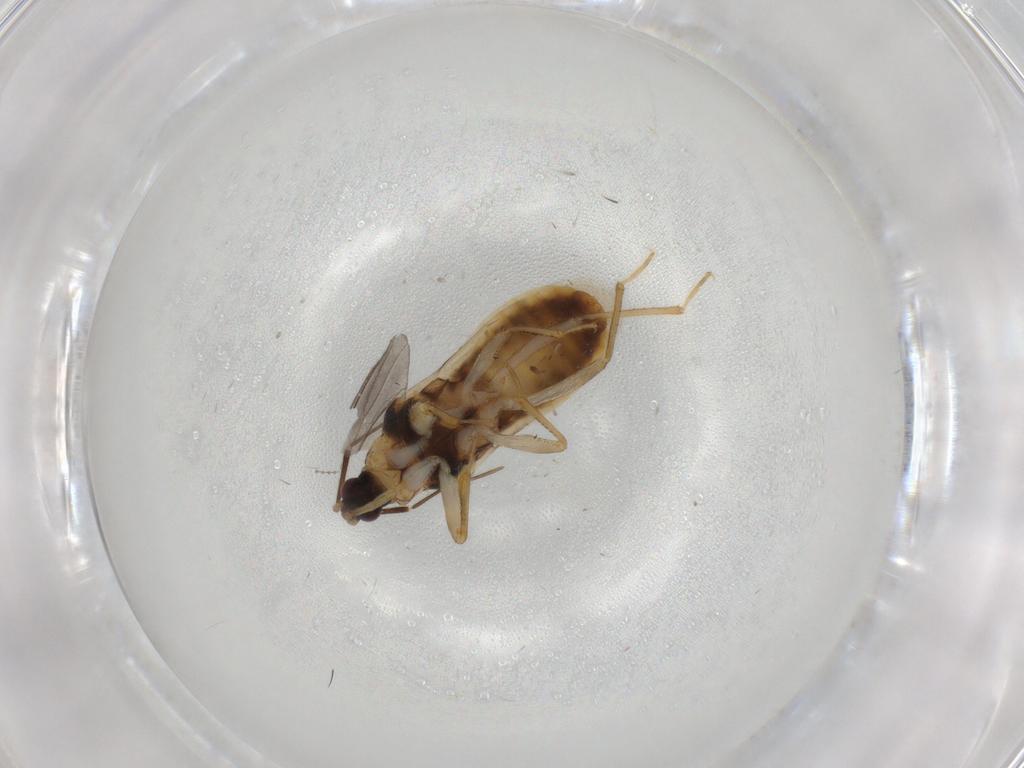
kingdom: Animalia
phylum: Arthropoda
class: Insecta
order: Hemiptera
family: Nabidae
